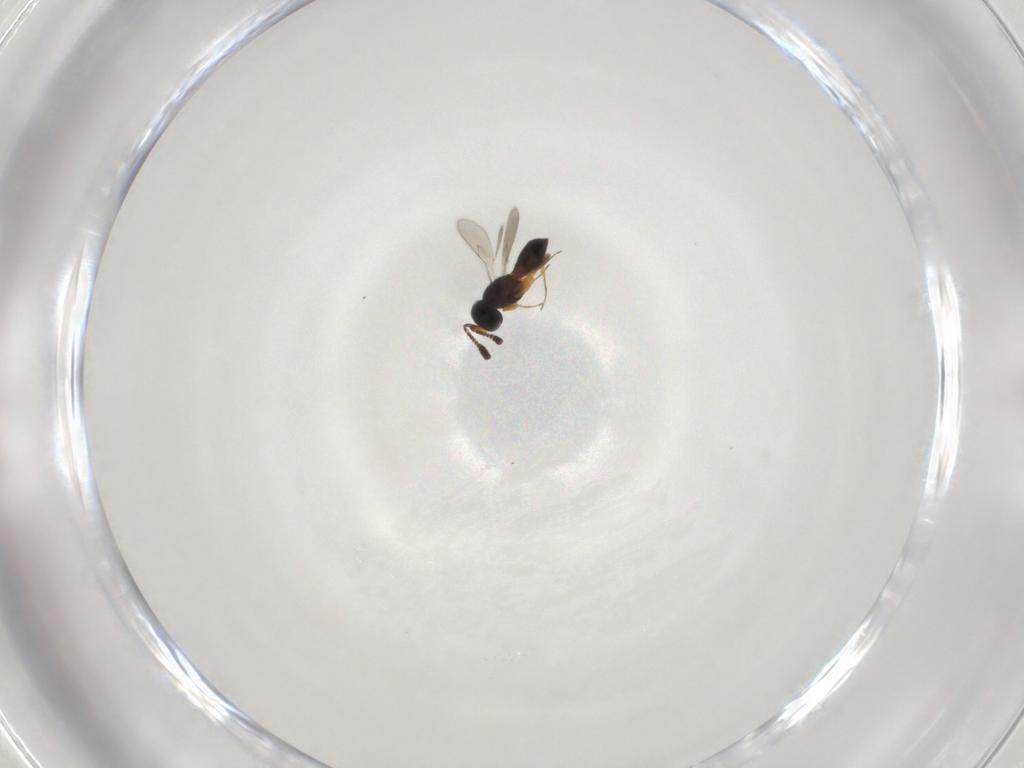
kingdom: Animalia
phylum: Arthropoda
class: Insecta
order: Hymenoptera
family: Scelionidae
